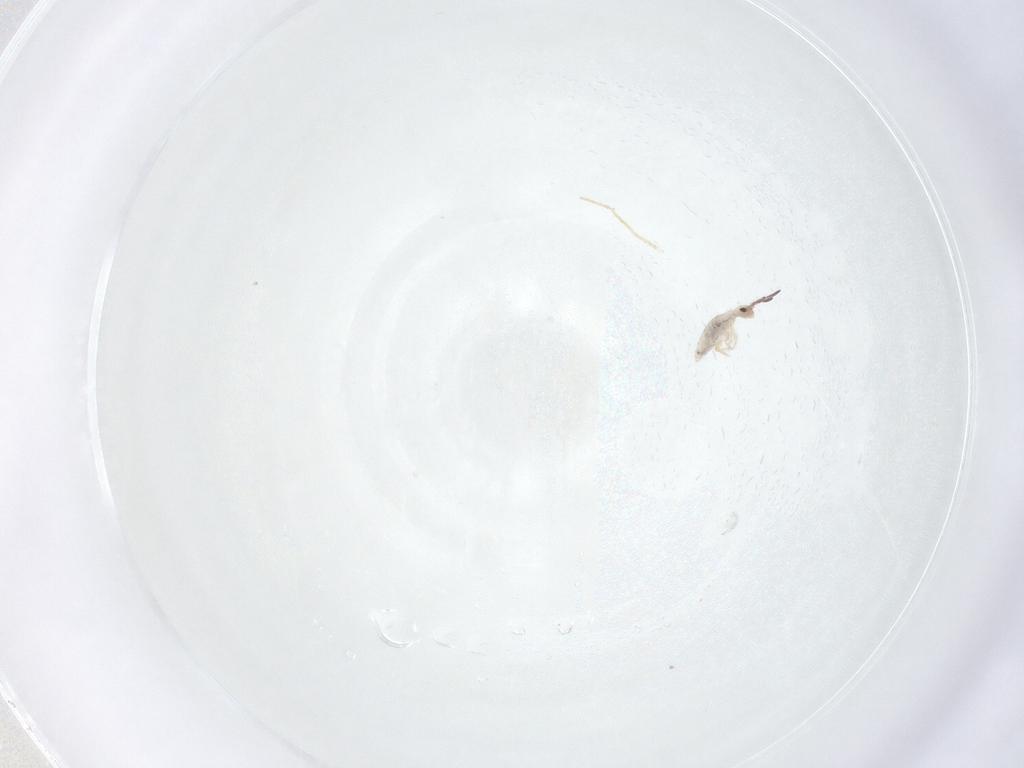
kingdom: Animalia
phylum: Arthropoda
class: Collembola
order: Entomobryomorpha
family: Entomobryidae
